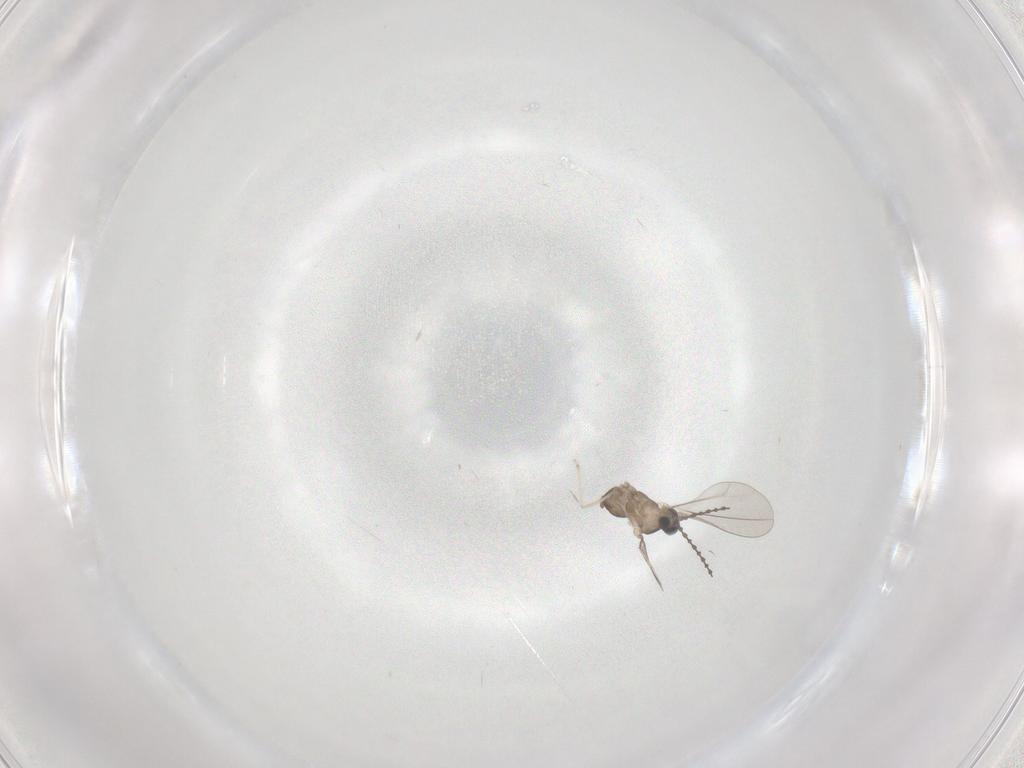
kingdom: Animalia
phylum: Arthropoda
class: Insecta
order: Diptera
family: Cecidomyiidae
